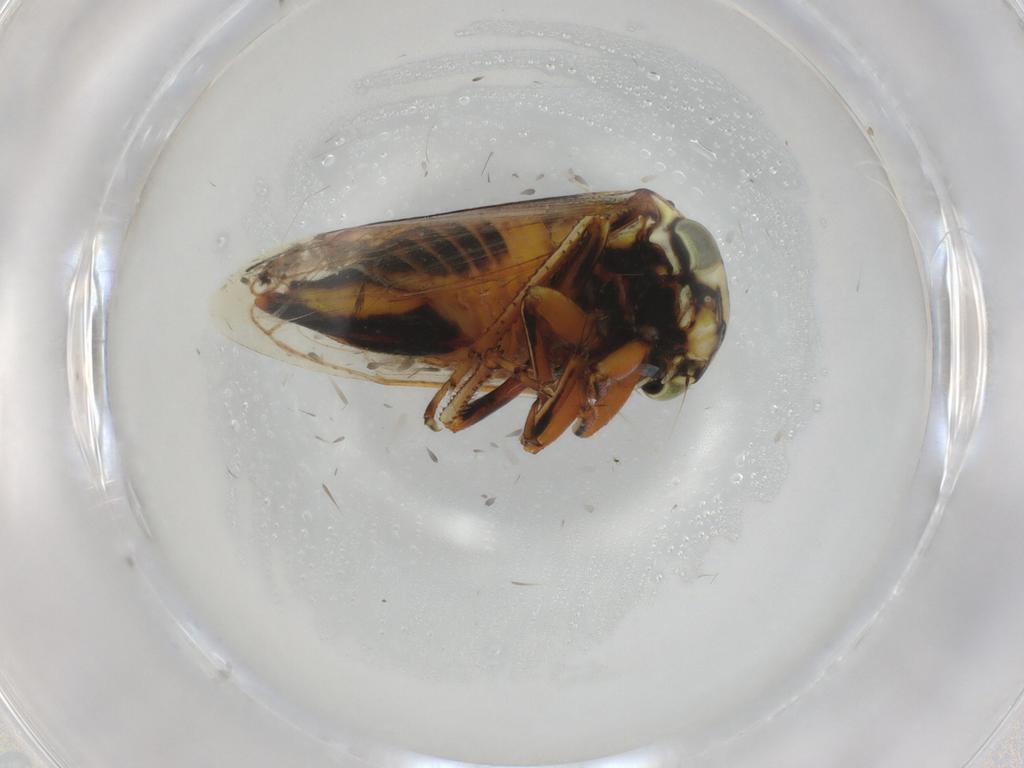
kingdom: Animalia
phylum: Arthropoda
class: Insecta
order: Hemiptera
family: Membracidae
